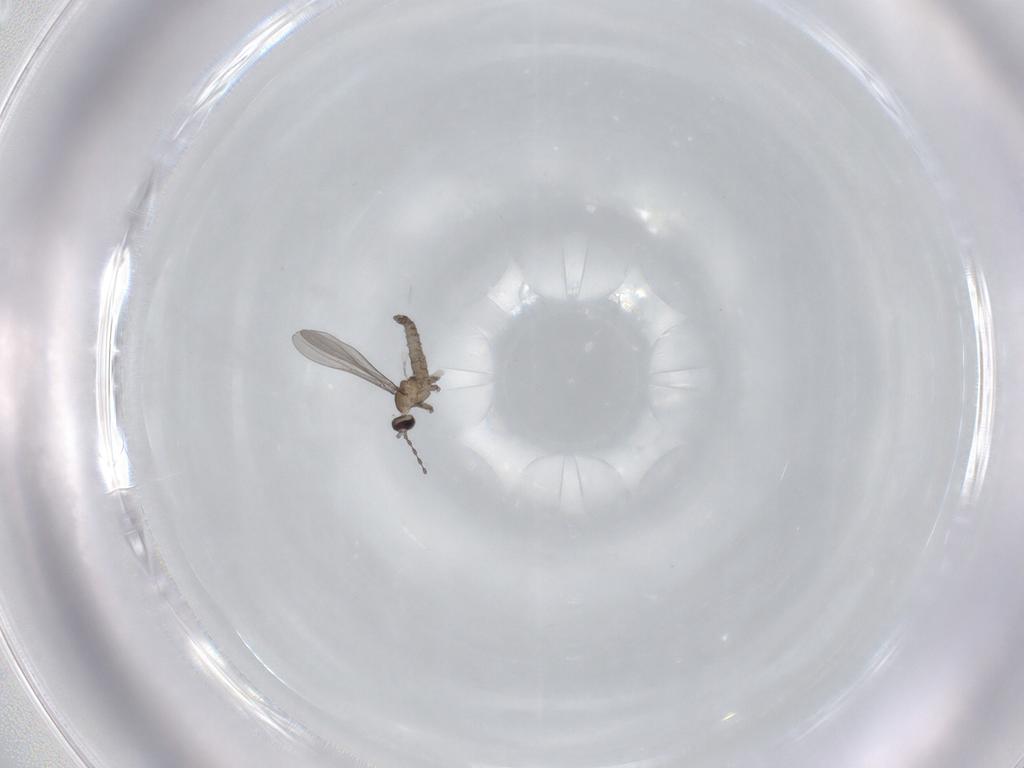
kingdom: Animalia
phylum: Arthropoda
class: Insecta
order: Diptera
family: Cecidomyiidae
